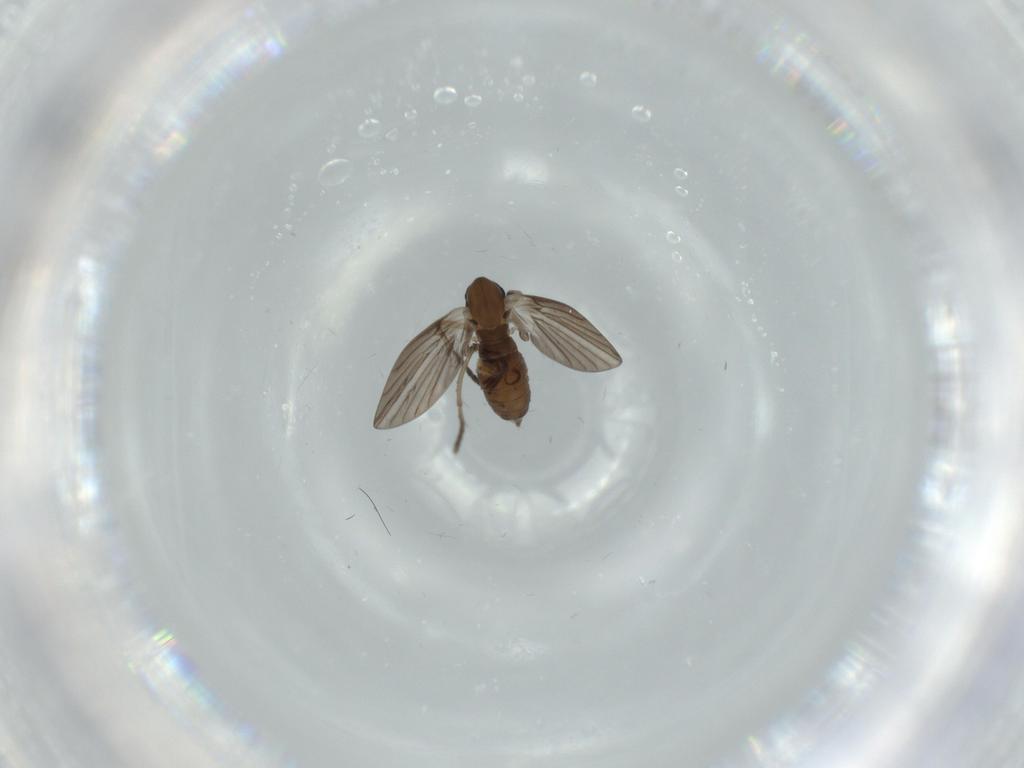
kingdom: Animalia
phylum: Arthropoda
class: Insecta
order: Diptera
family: Psychodidae
